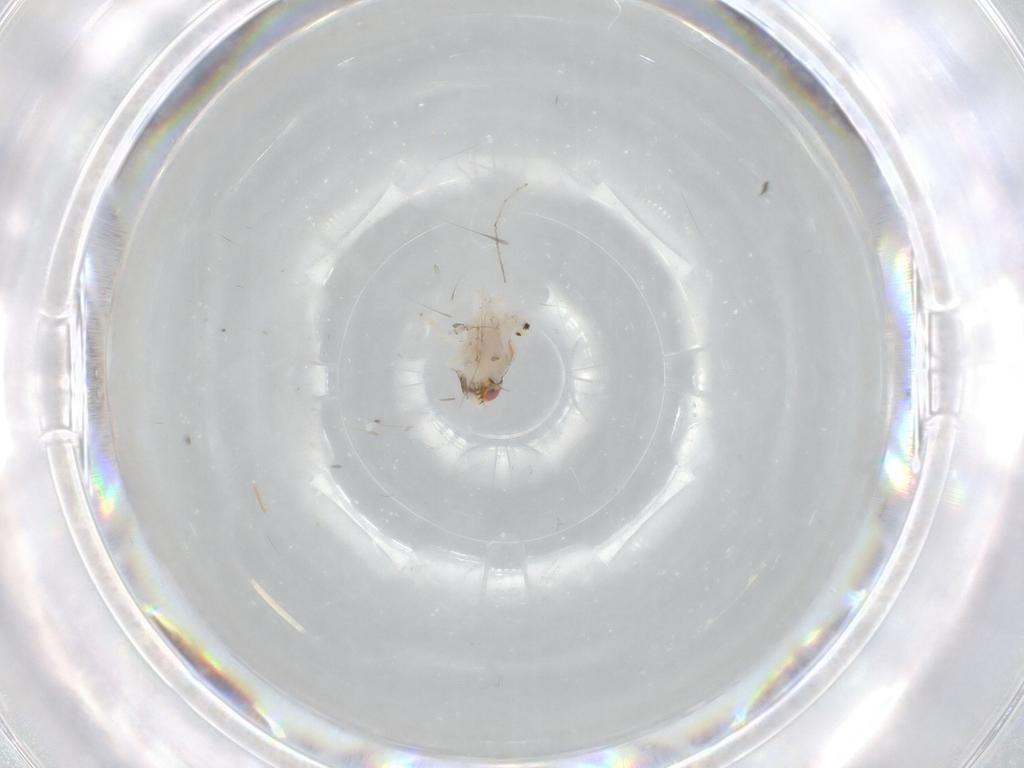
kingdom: Animalia
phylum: Arthropoda
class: Insecta
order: Hemiptera
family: Nogodinidae
